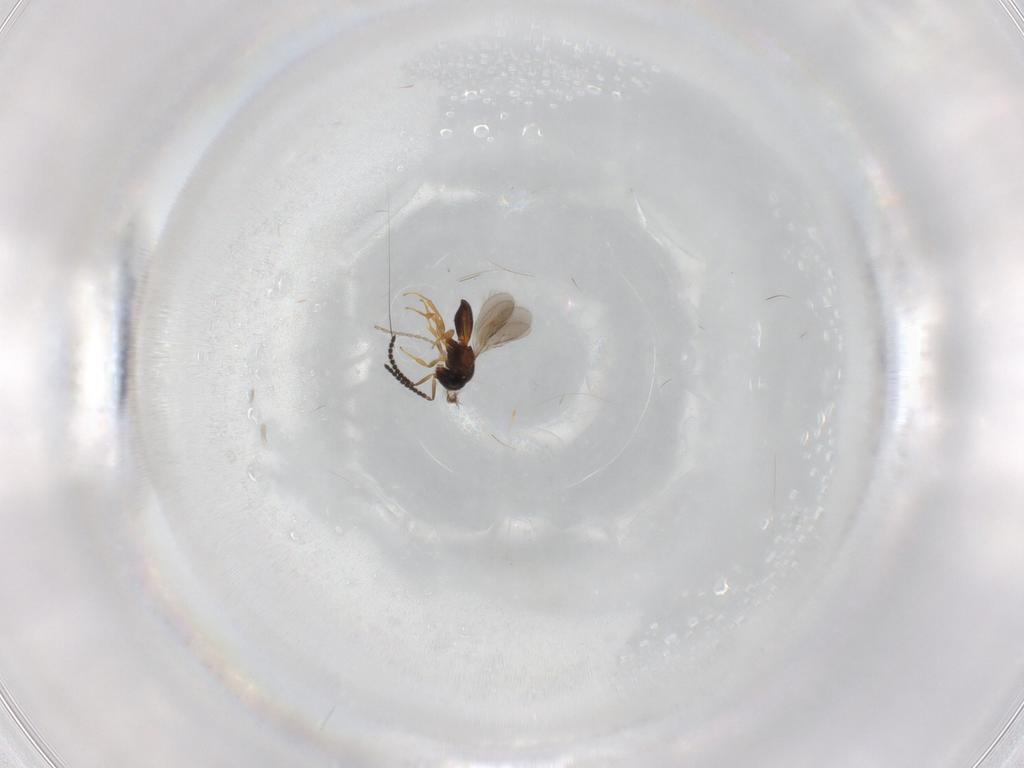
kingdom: Animalia
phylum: Arthropoda
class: Insecta
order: Hymenoptera
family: Scelionidae
